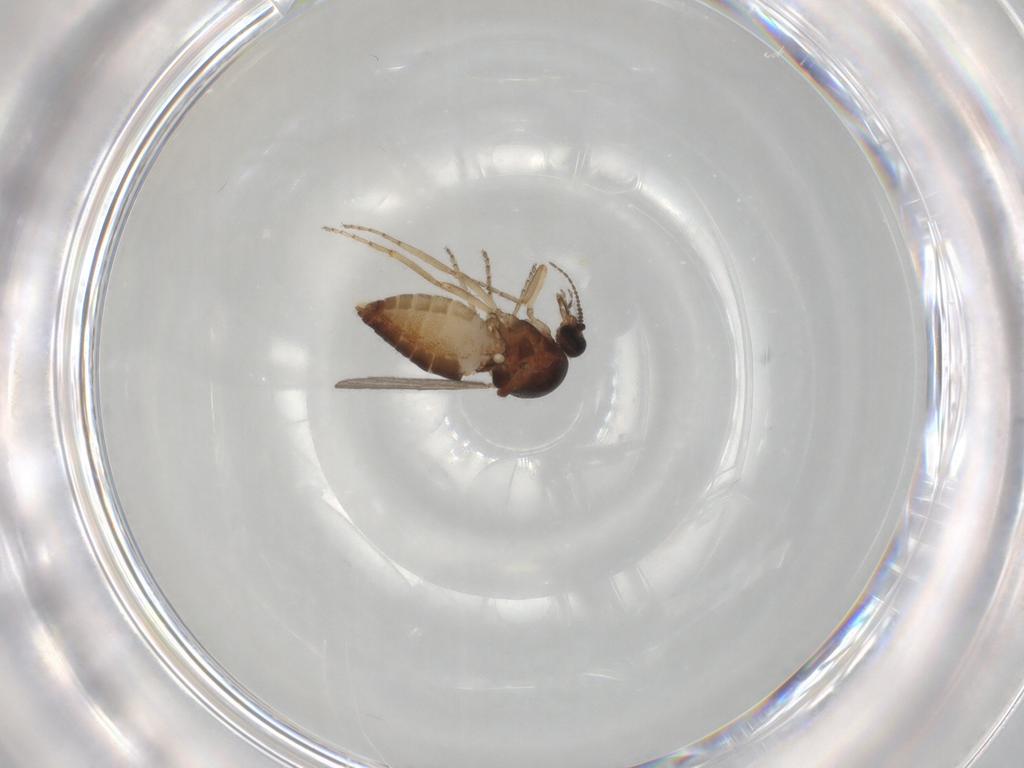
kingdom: Animalia
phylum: Arthropoda
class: Insecta
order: Diptera
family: Ceratopogonidae
